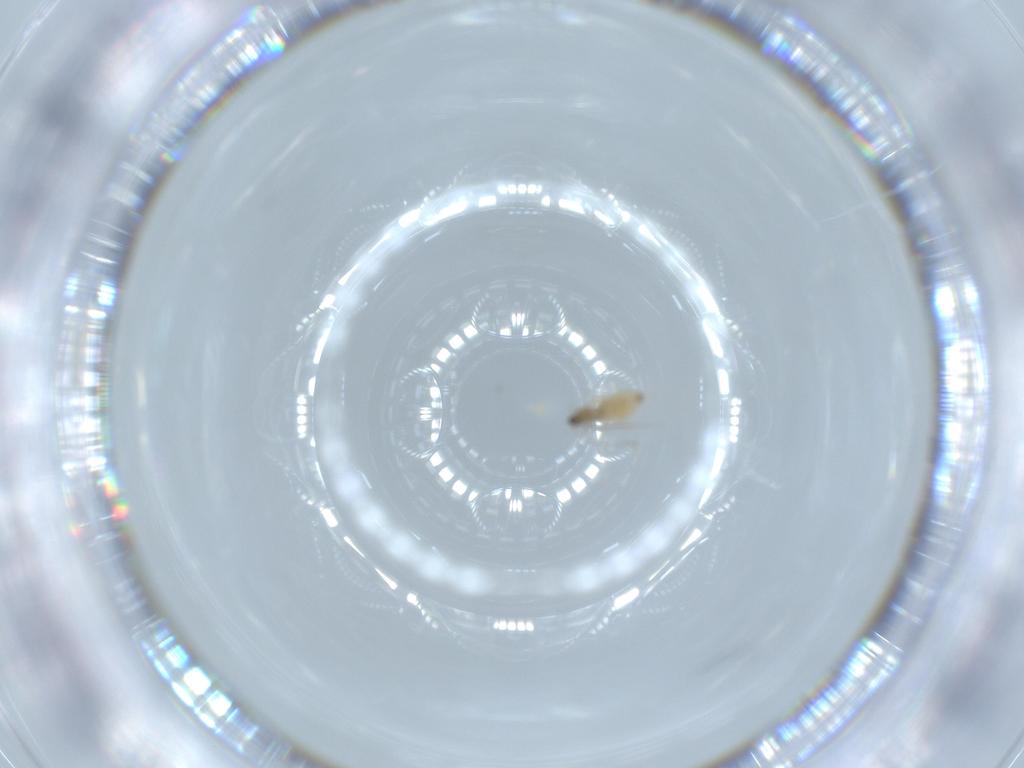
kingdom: Animalia
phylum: Arthropoda
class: Insecta
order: Diptera
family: Cecidomyiidae
